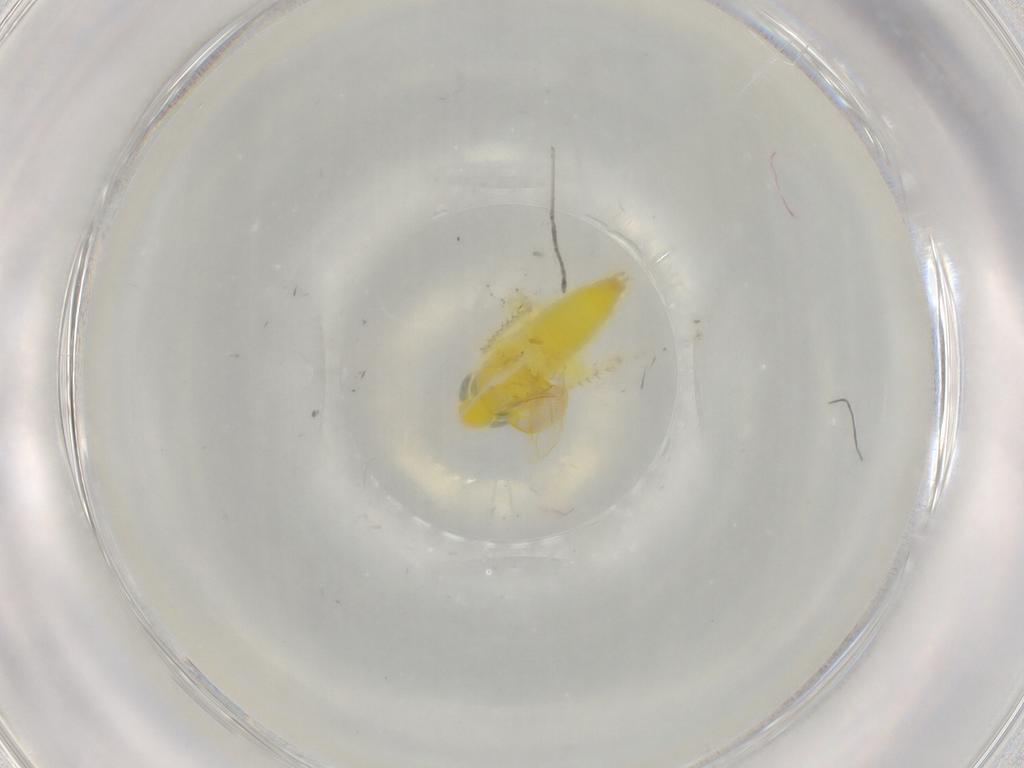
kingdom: Animalia
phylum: Arthropoda
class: Insecta
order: Hemiptera
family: Cicadellidae
